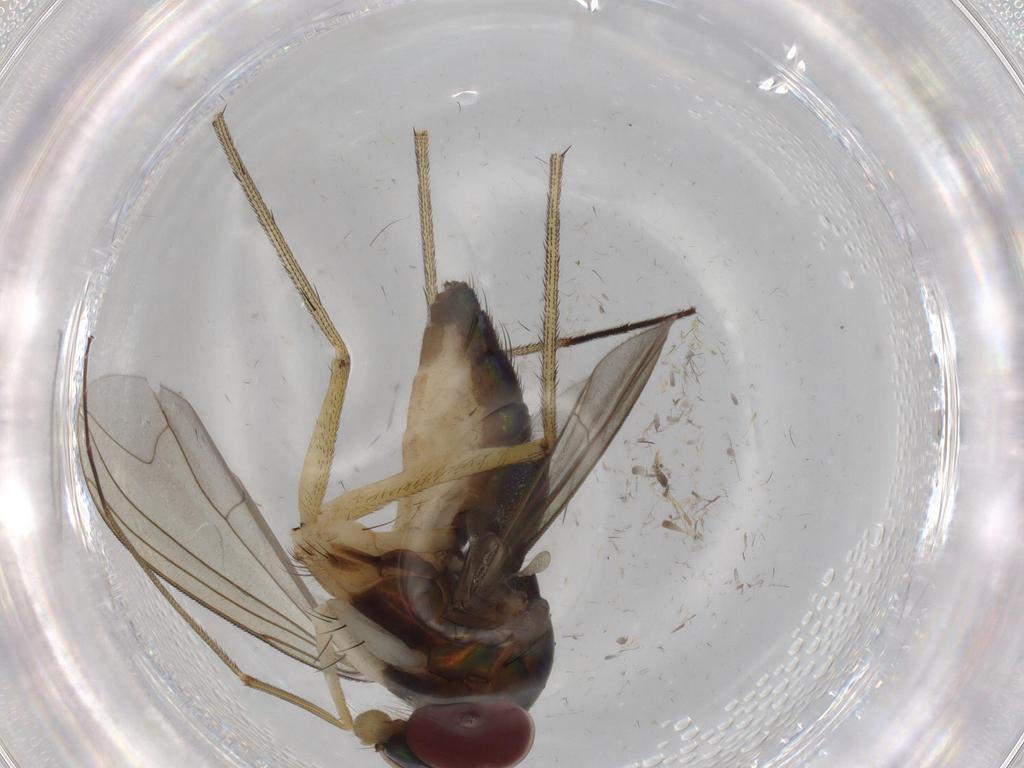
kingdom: Animalia
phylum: Arthropoda
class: Insecta
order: Diptera
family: Dolichopodidae
